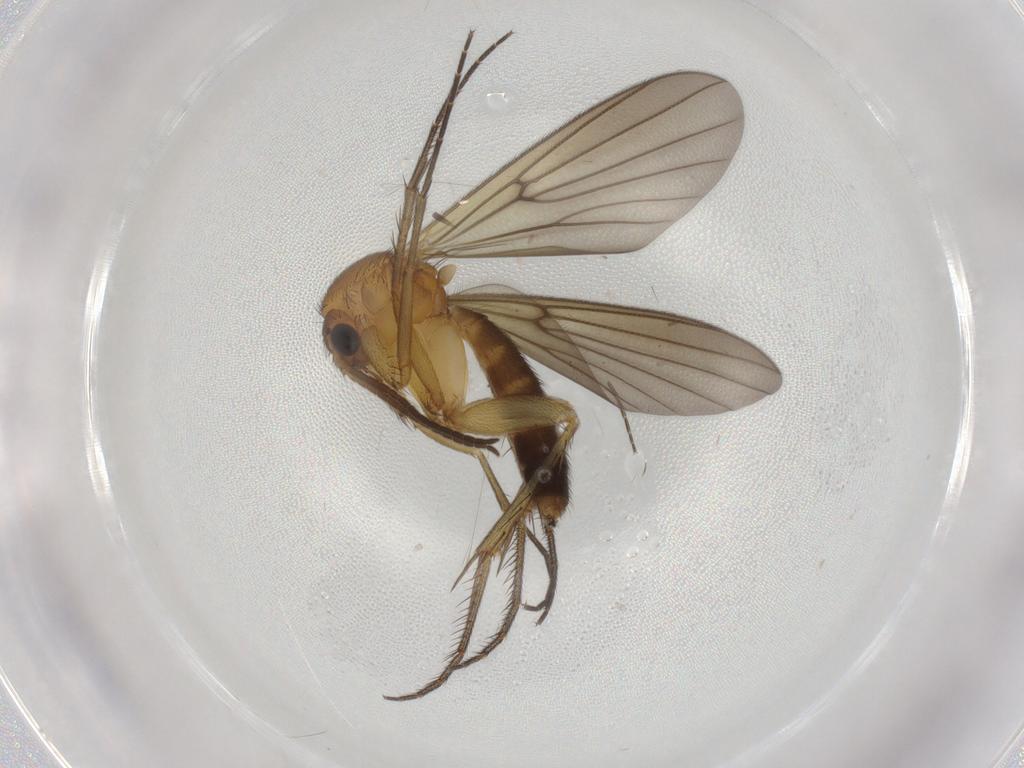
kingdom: Animalia
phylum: Arthropoda
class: Insecta
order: Diptera
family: Phoridae
